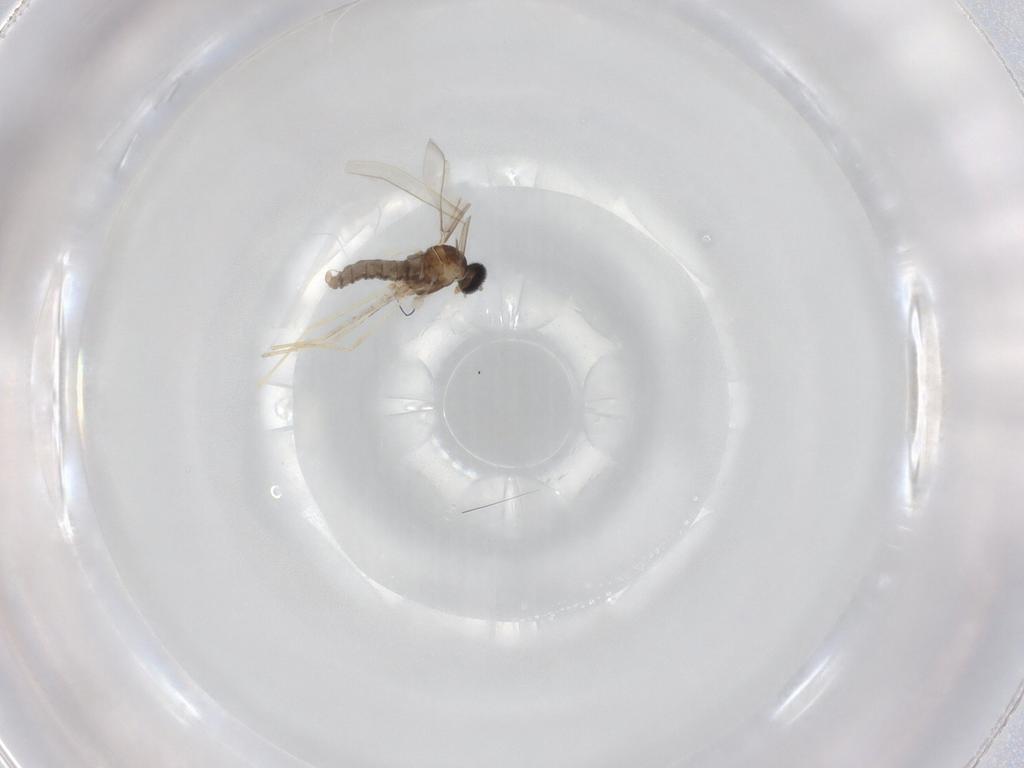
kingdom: Animalia
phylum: Arthropoda
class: Insecta
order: Diptera
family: Cecidomyiidae
